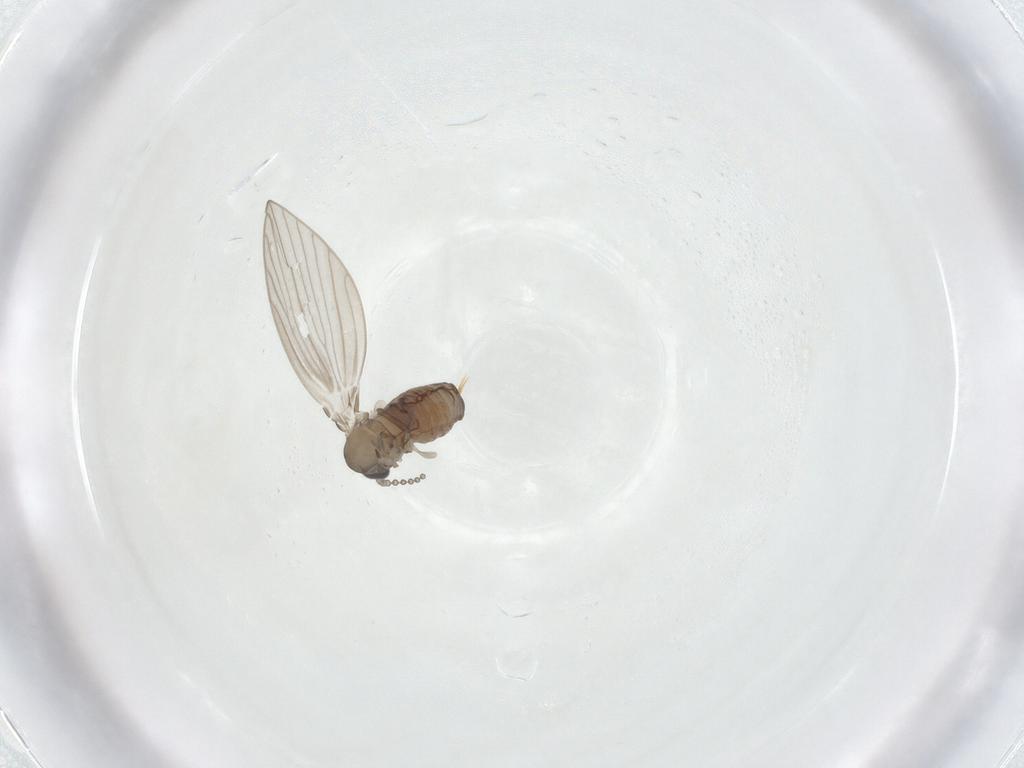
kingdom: Animalia
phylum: Arthropoda
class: Insecta
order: Diptera
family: Psychodidae
